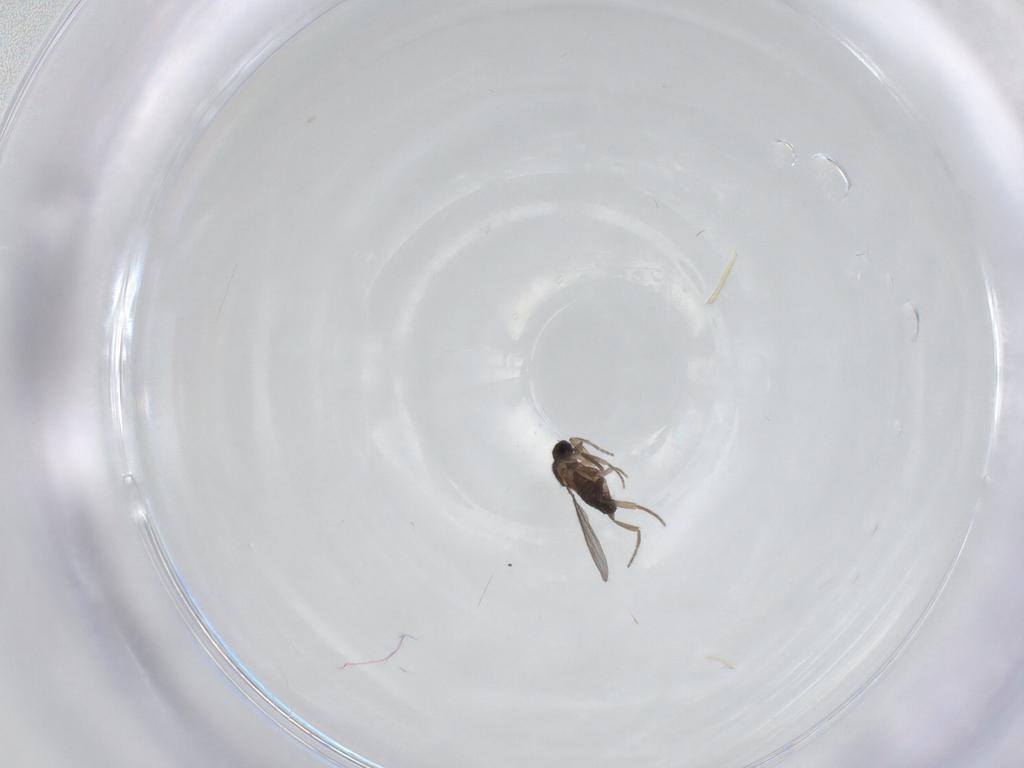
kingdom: Animalia
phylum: Arthropoda
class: Insecta
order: Diptera
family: Phoridae
